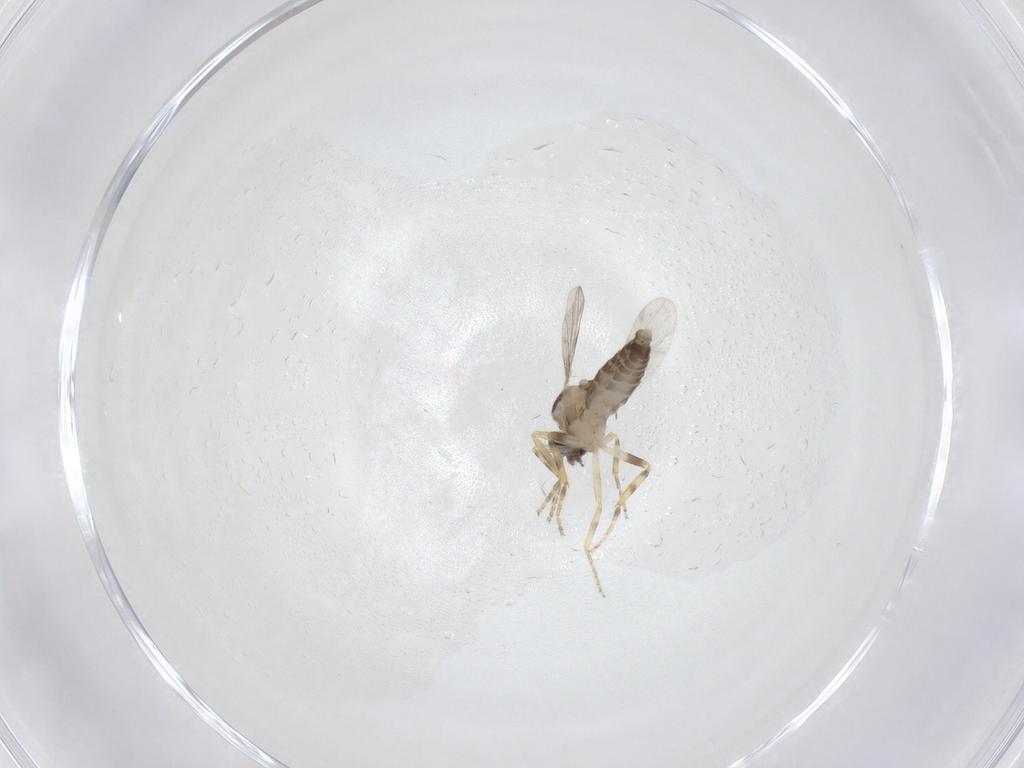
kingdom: Animalia
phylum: Arthropoda
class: Insecta
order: Diptera
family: Ceratopogonidae
